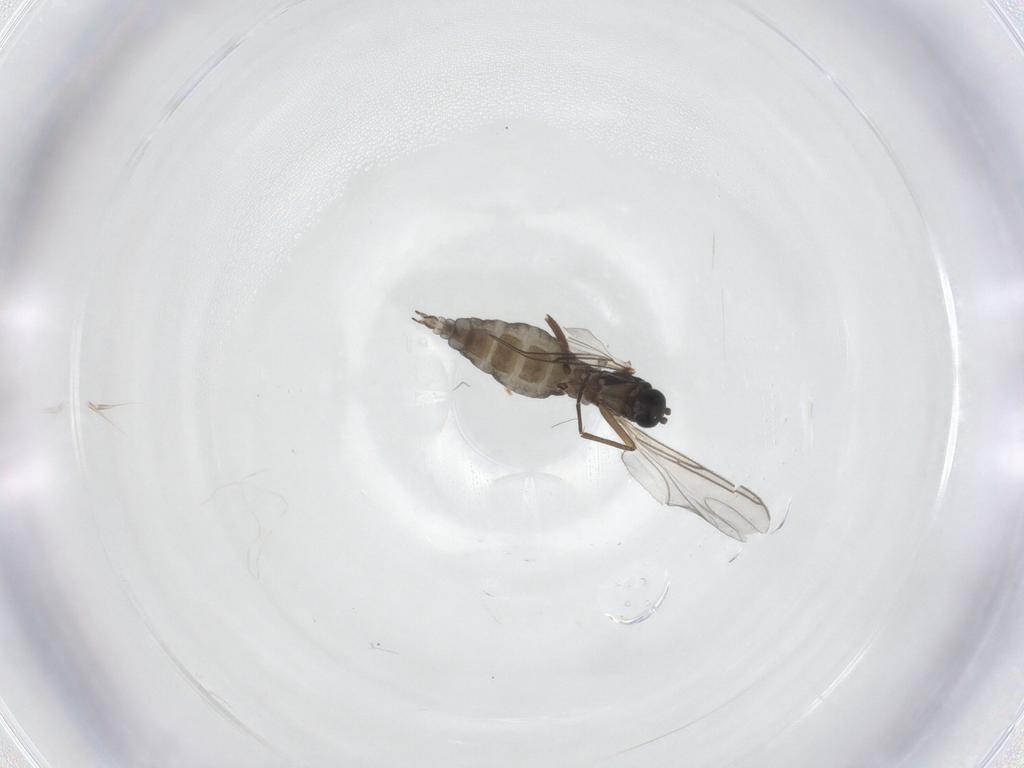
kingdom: Animalia
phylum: Arthropoda
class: Insecta
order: Diptera
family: Sciaridae
